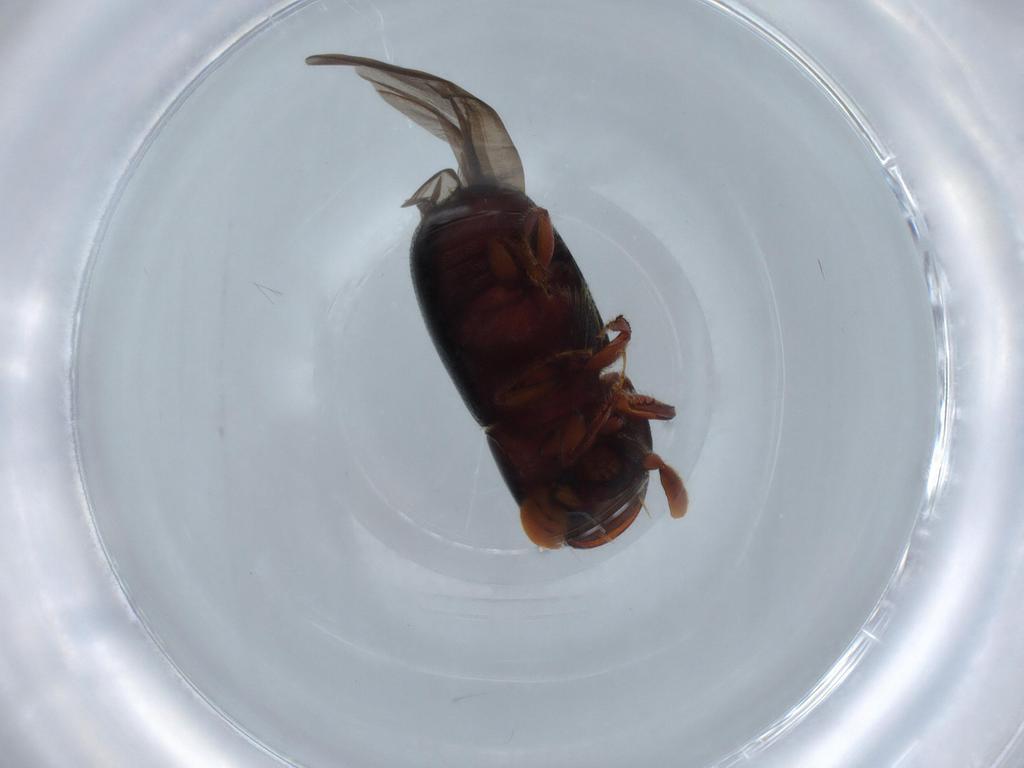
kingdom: Animalia
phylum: Arthropoda
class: Insecta
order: Coleoptera
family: Curculionidae
